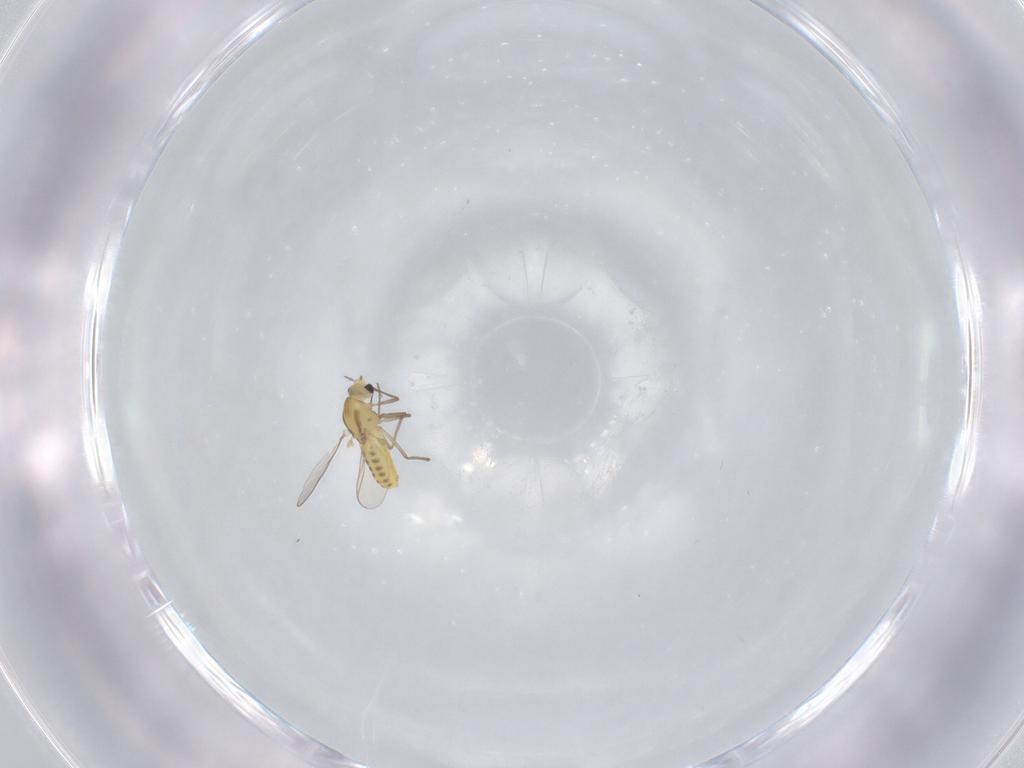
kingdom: Animalia
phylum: Arthropoda
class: Insecta
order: Diptera
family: Chironomidae
